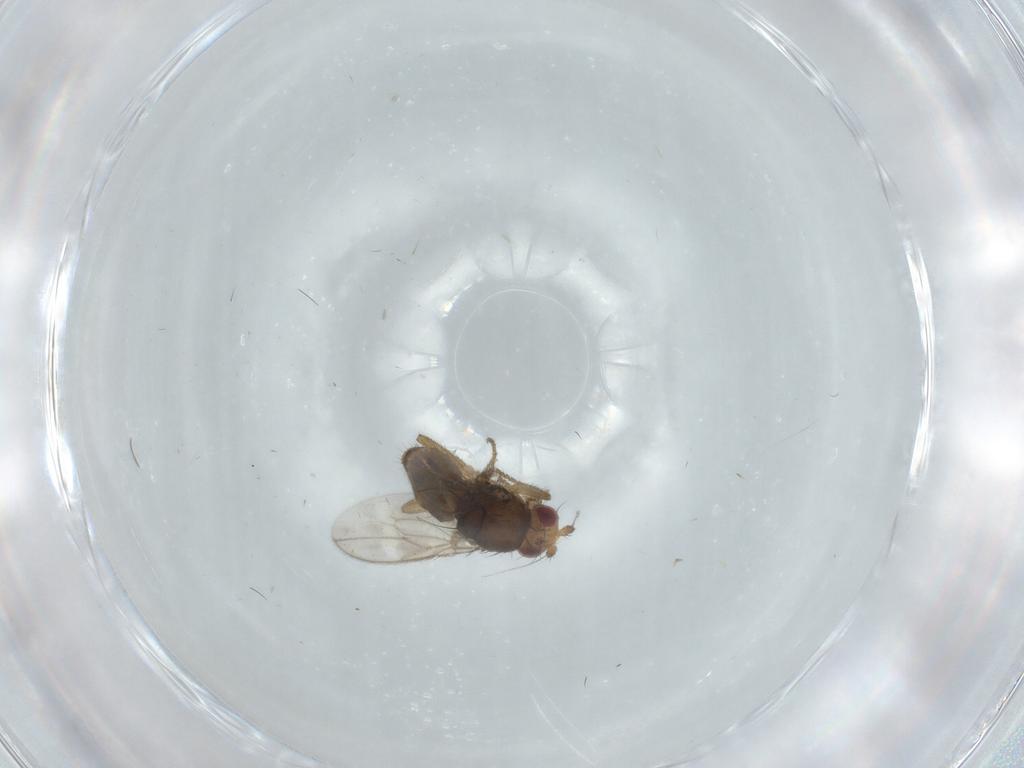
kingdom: Animalia
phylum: Arthropoda
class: Insecta
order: Diptera
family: Sphaeroceridae
